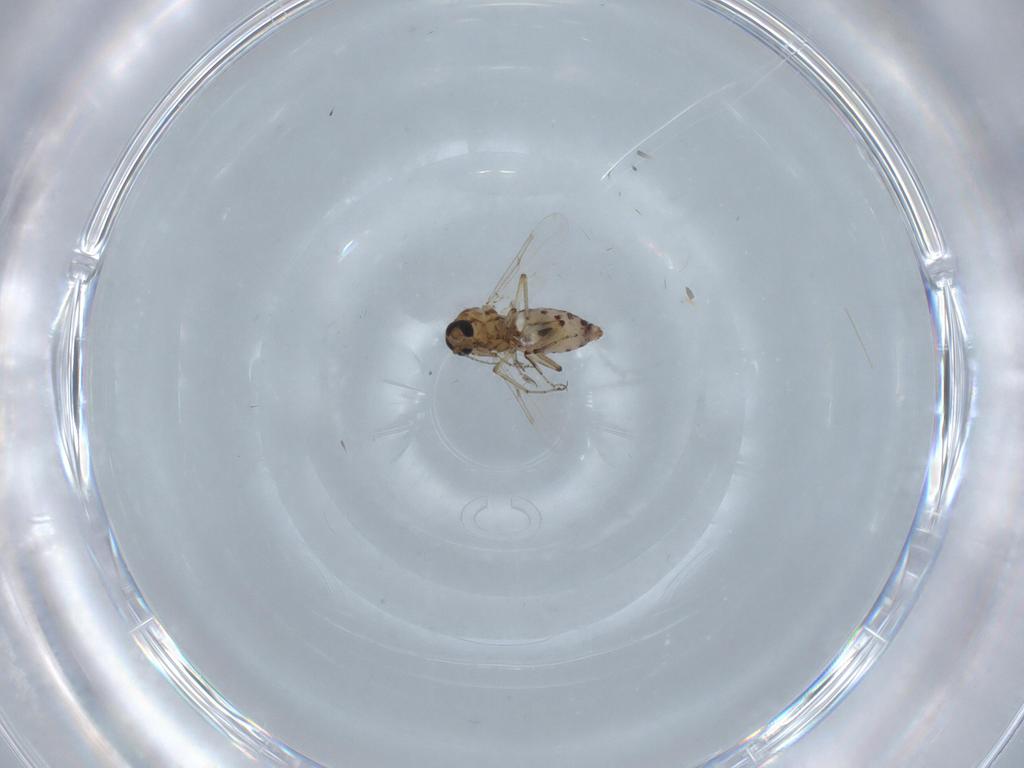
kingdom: Animalia
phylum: Arthropoda
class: Insecta
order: Diptera
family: Ceratopogonidae
